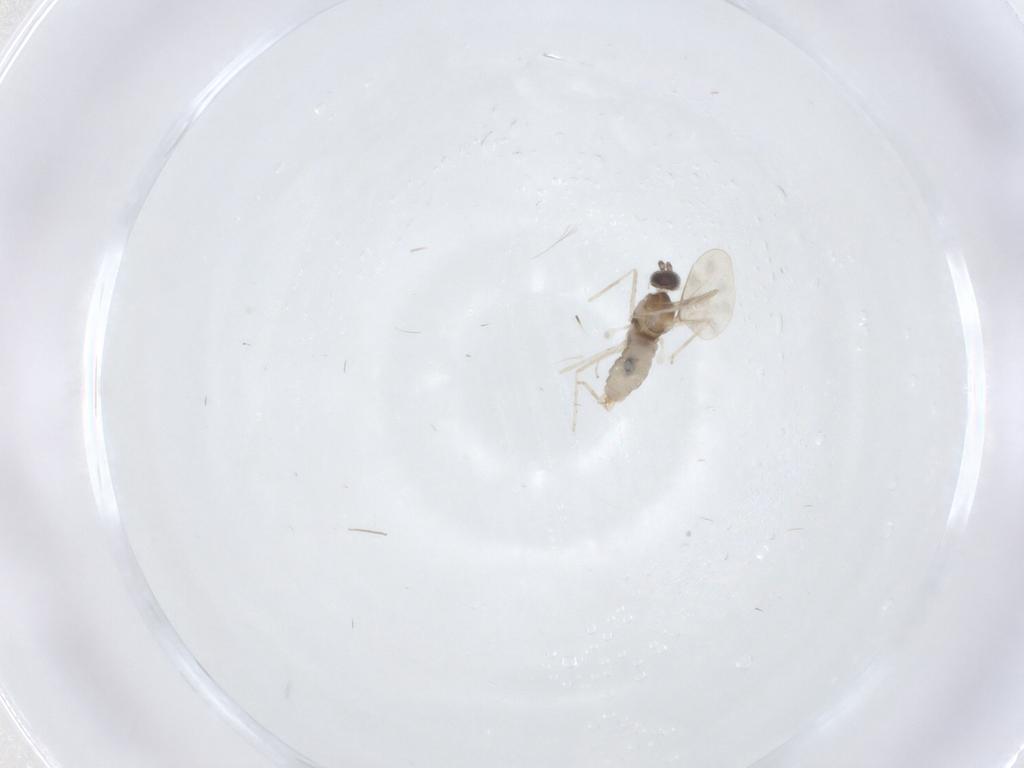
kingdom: Animalia
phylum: Arthropoda
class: Insecta
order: Diptera
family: Cecidomyiidae
